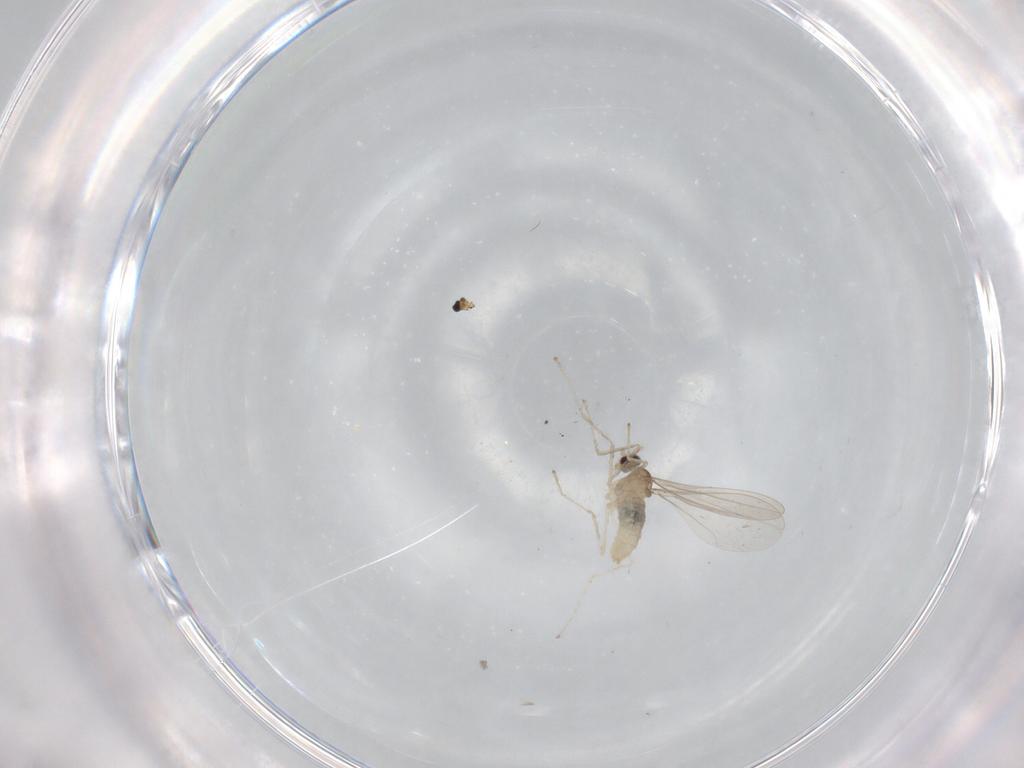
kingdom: Animalia
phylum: Arthropoda
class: Insecta
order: Diptera
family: Cecidomyiidae
